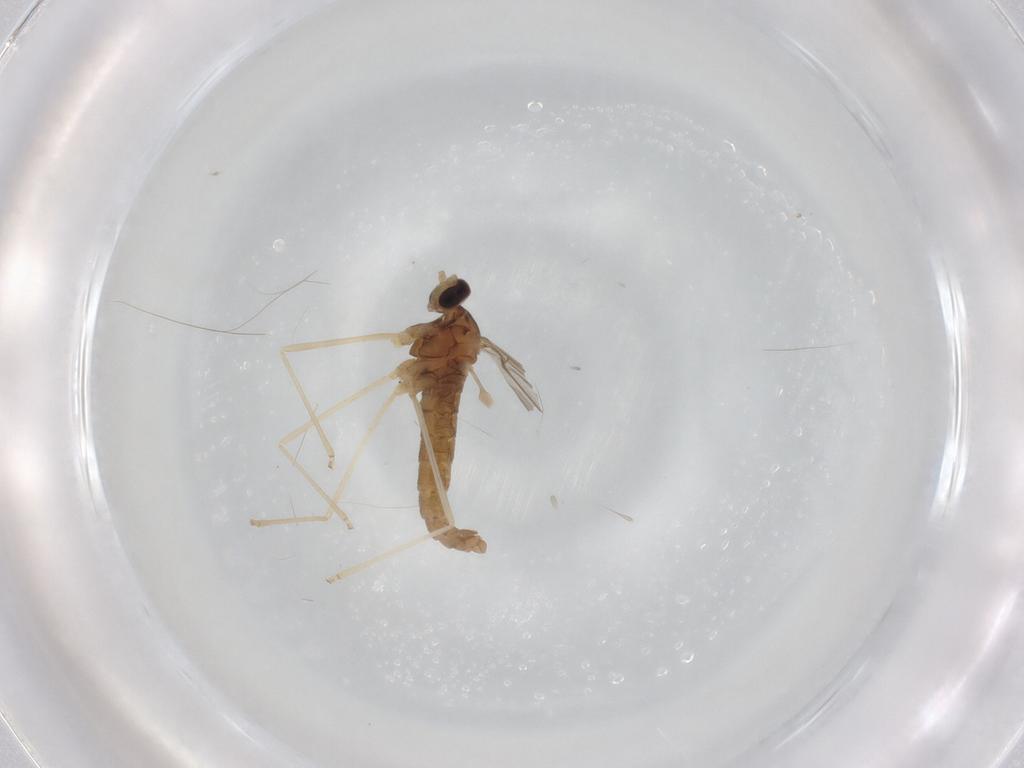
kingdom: Animalia
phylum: Arthropoda
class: Insecta
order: Diptera
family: Cecidomyiidae
